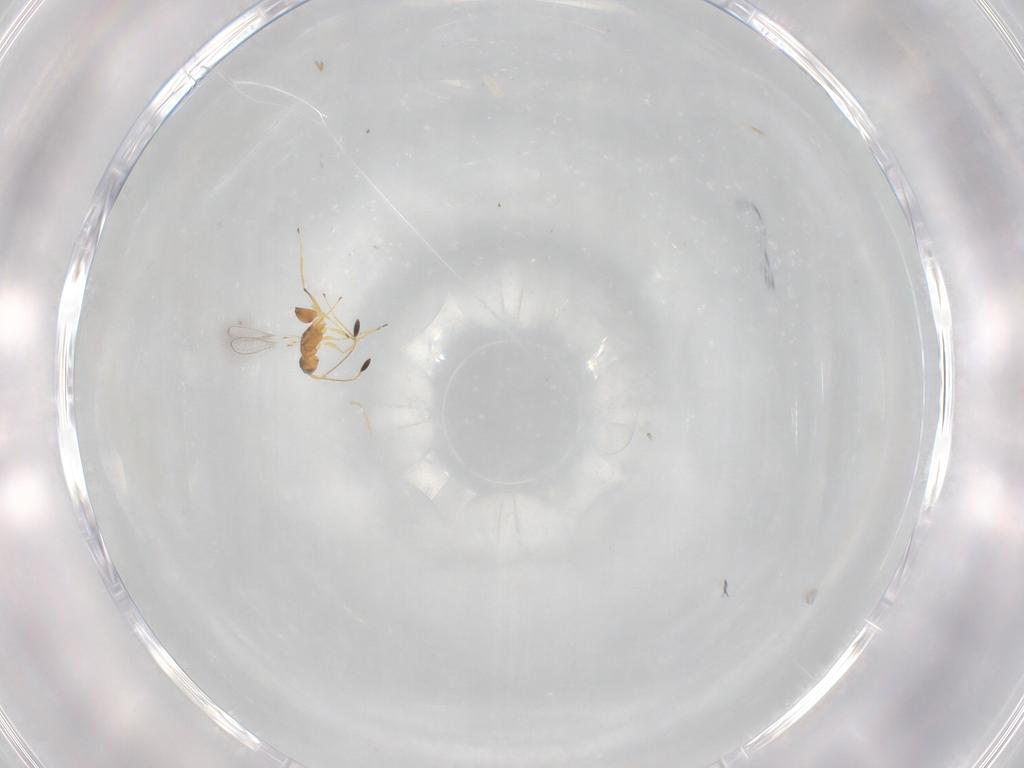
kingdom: Animalia
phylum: Arthropoda
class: Insecta
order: Hymenoptera
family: Mymaridae
